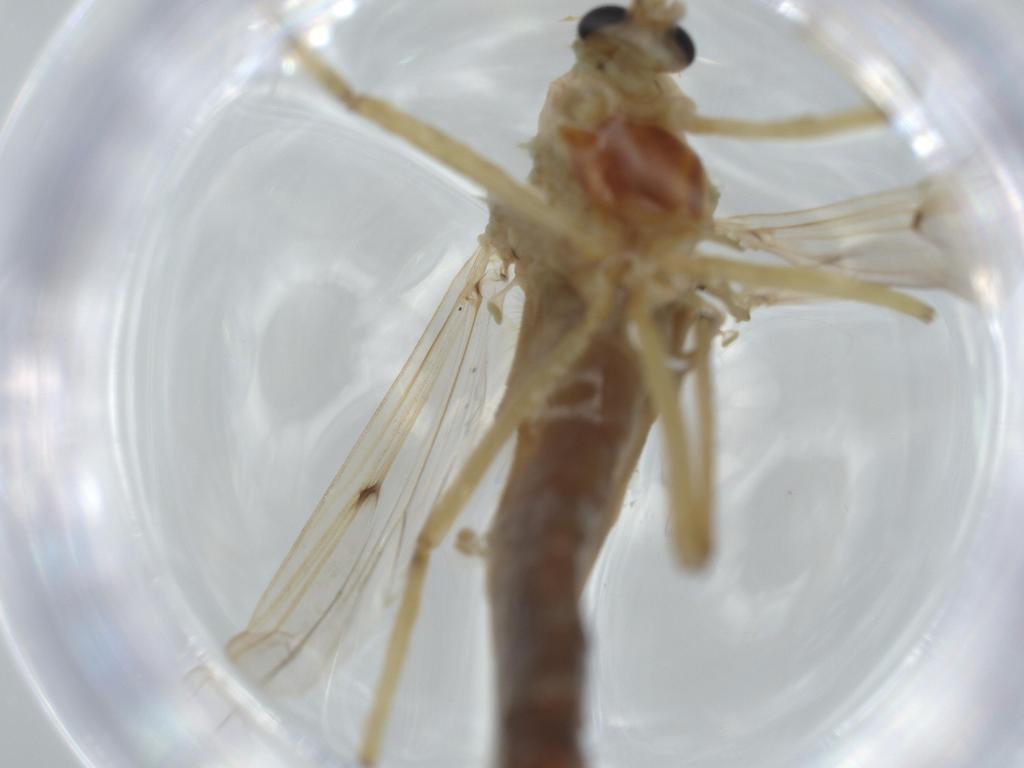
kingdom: Animalia
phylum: Arthropoda
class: Insecta
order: Diptera
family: Chironomidae
